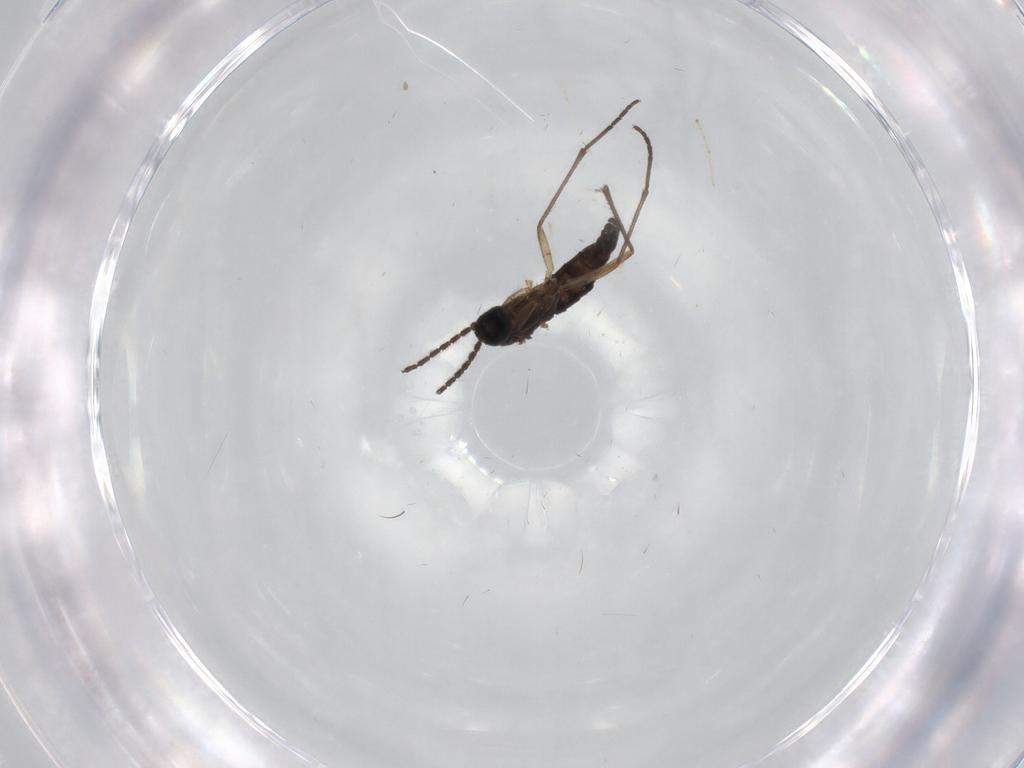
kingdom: Animalia
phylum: Arthropoda
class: Insecta
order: Diptera
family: Sciaridae
